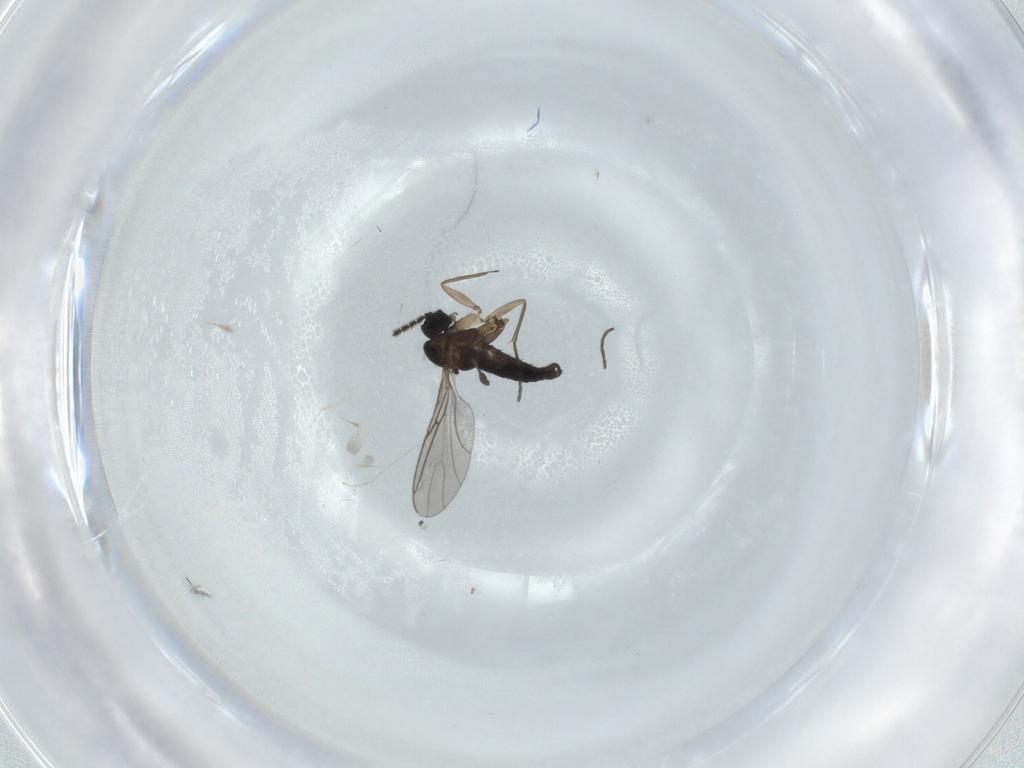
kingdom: Animalia
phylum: Arthropoda
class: Insecta
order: Diptera
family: Sciaridae
